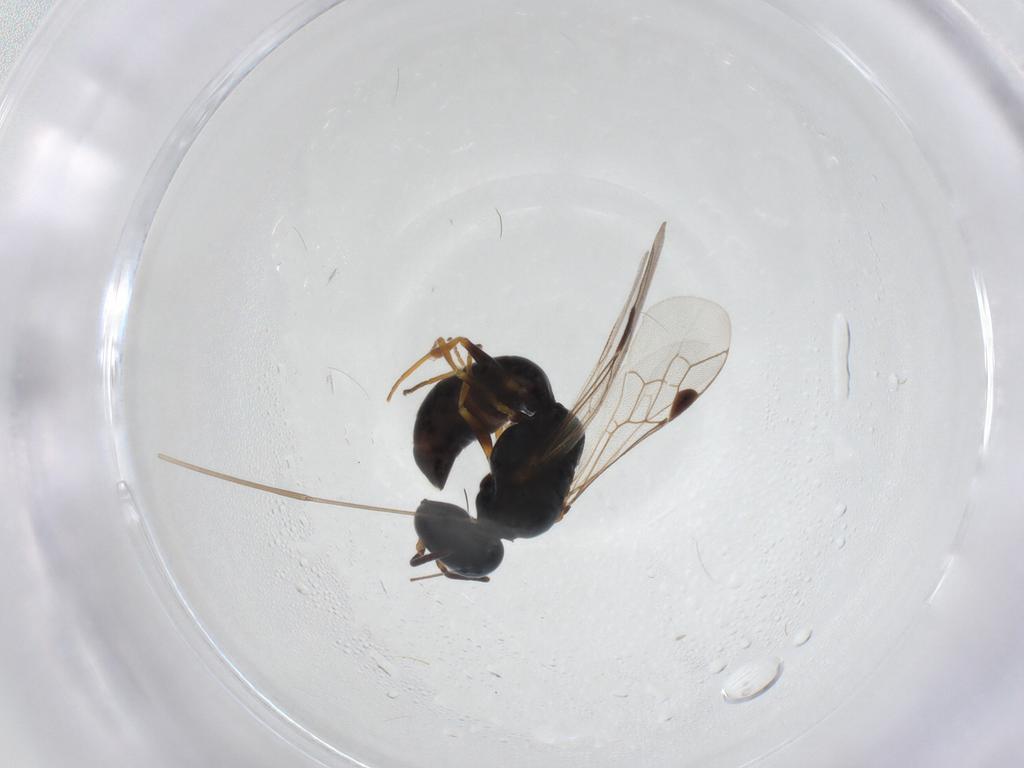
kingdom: Animalia
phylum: Arthropoda
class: Insecta
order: Hymenoptera
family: Crabronidae
